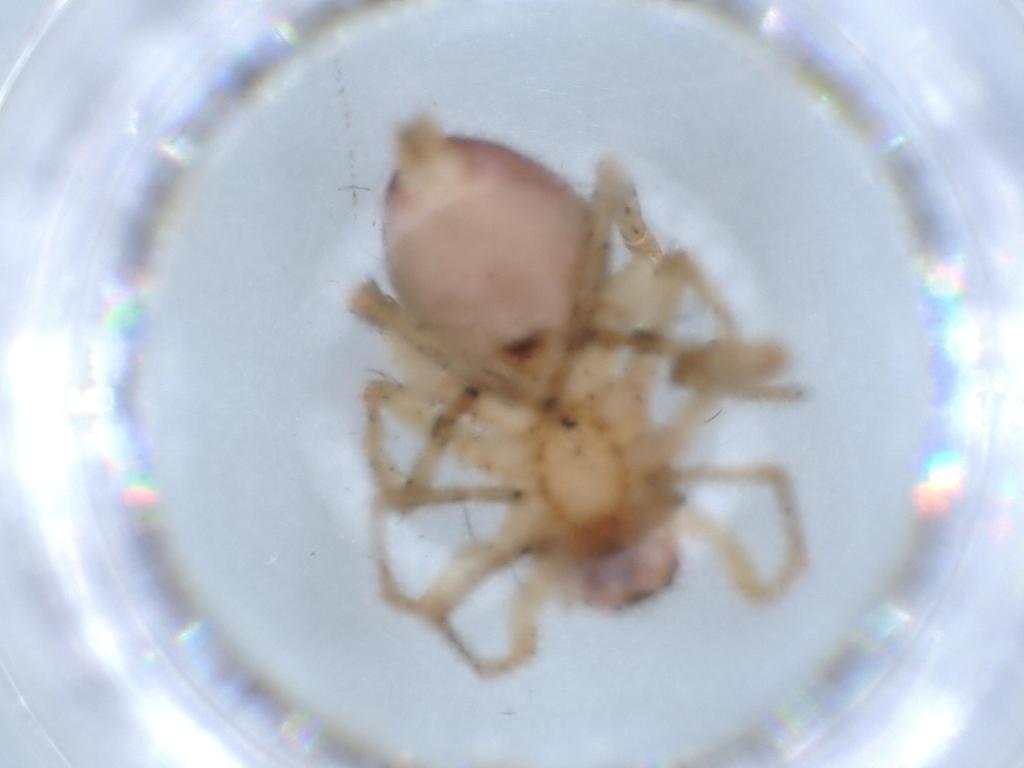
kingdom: Animalia
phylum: Arthropoda
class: Arachnida
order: Araneae
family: Clubionidae
